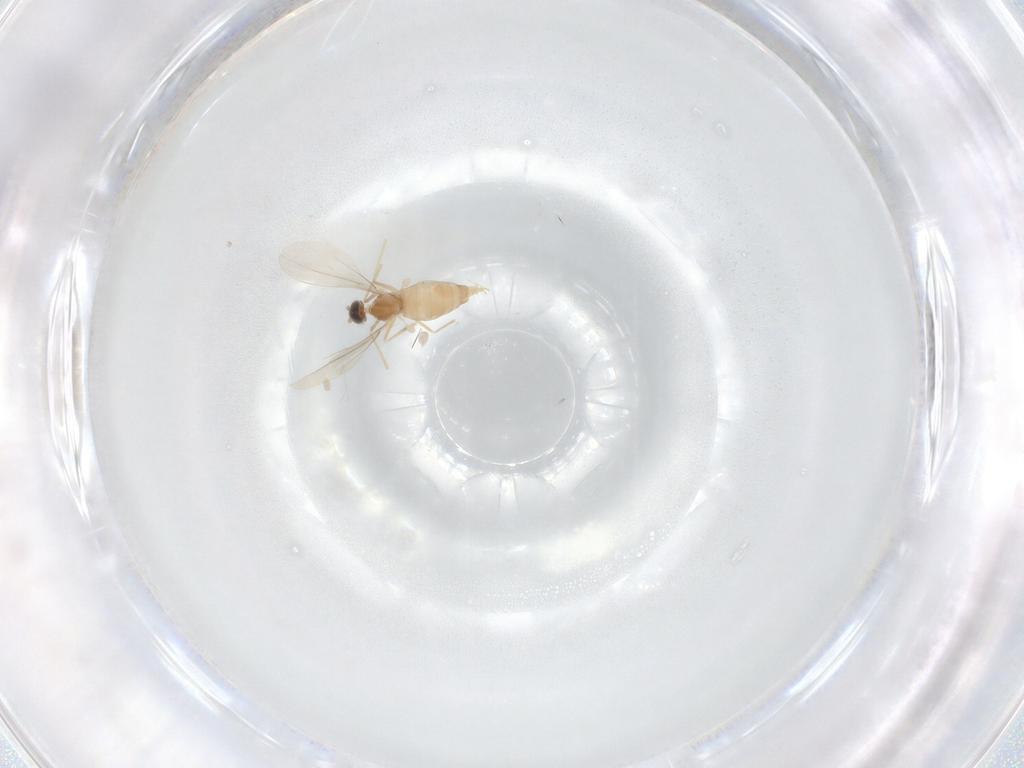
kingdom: Animalia
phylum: Arthropoda
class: Insecta
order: Diptera
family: Cecidomyiidae
